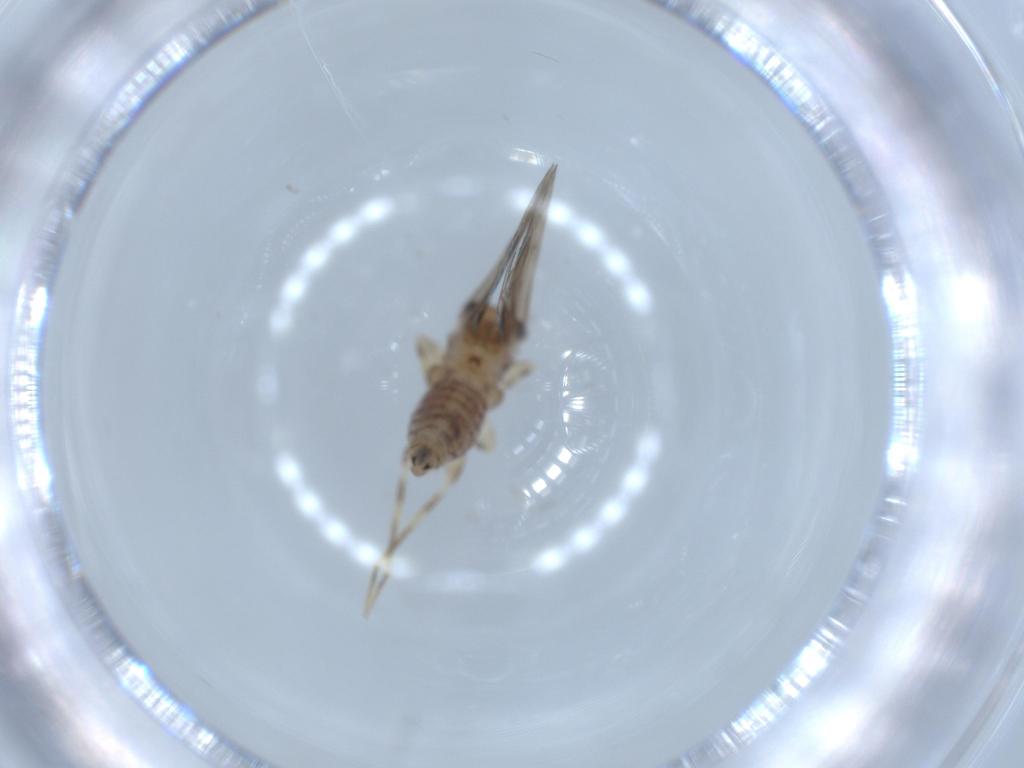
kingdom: Animalia
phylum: Arthropoda
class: Insecta
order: Psocodea
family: Lepidopsocidae
